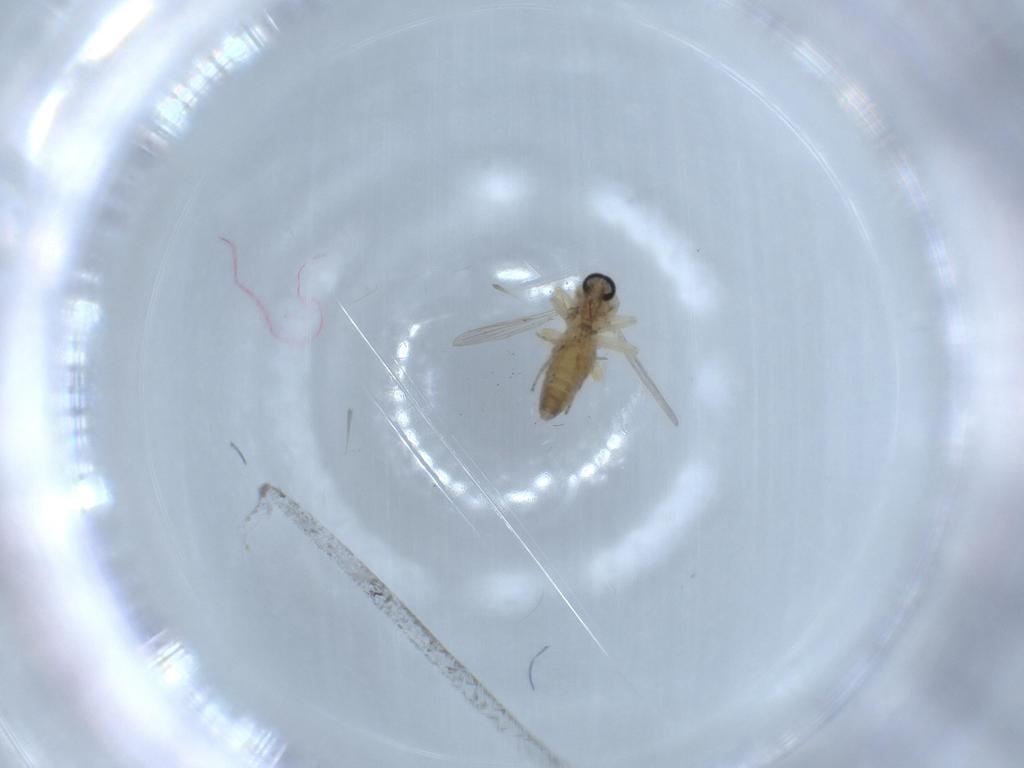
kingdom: Animalia
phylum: Arthropoda
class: Insecta
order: Diptera
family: Ceratopogonidae
